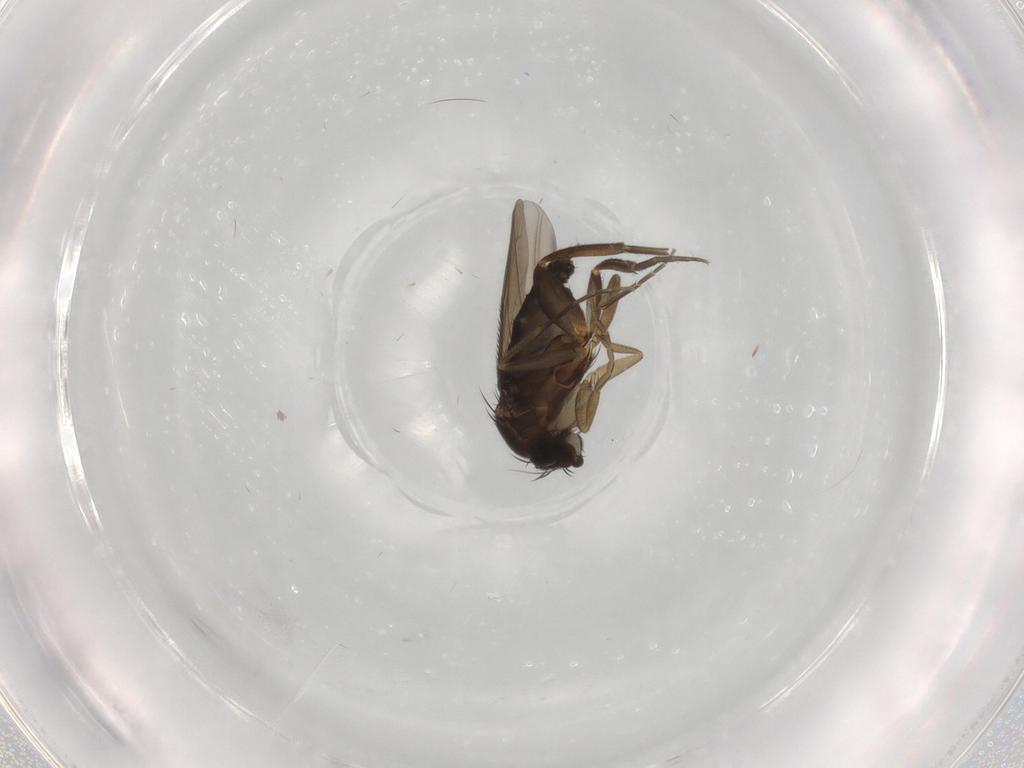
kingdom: Animalia
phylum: Arthropoda
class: Insecta
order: Diptera
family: Phoridae
